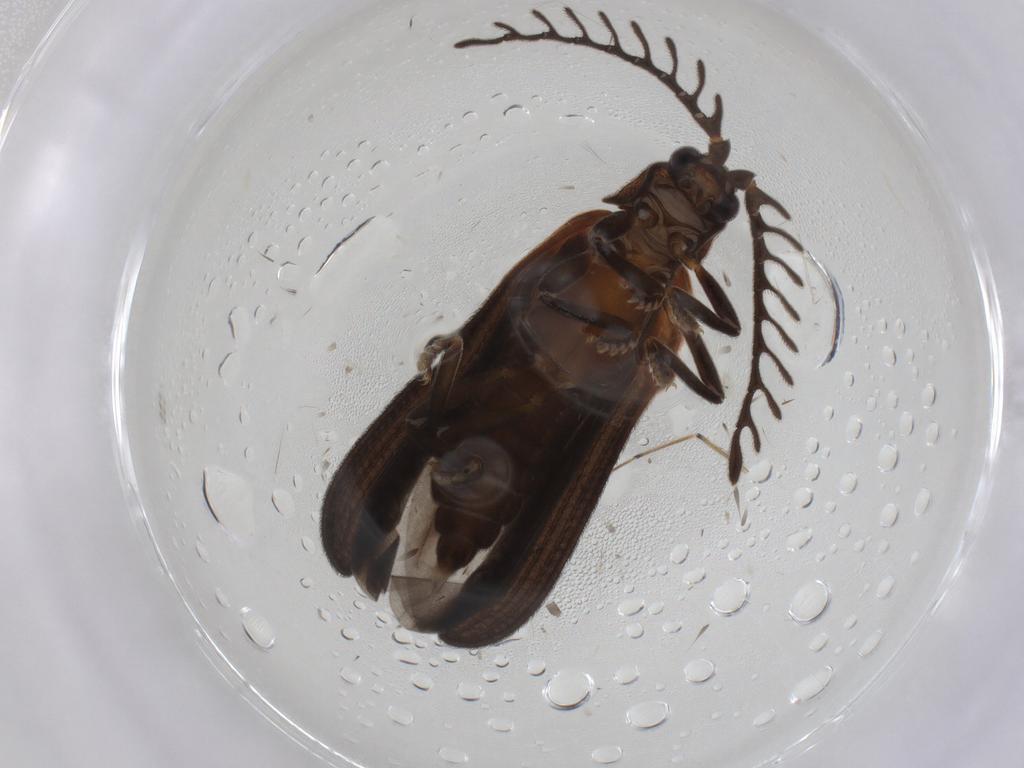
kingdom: Animalia
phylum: Arthropoda
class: Insecta
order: Coleoptera
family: Lycidae
